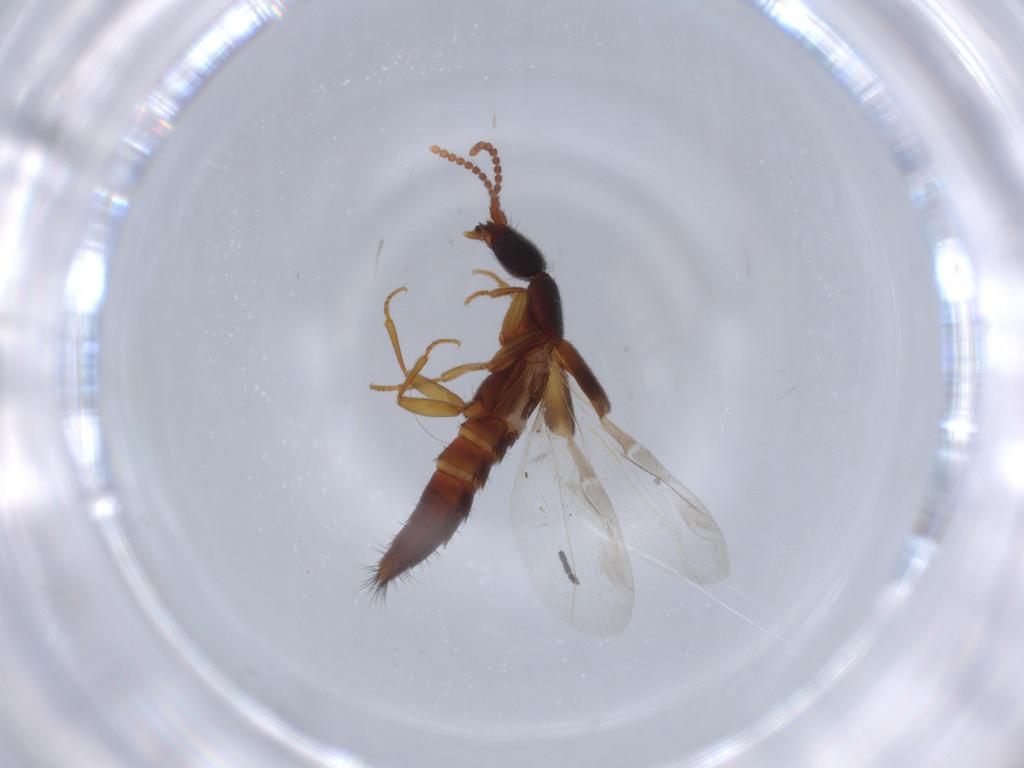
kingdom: Animalia
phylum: Arthropoda
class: Insecta
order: Coleoptera
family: Staphylinidae
